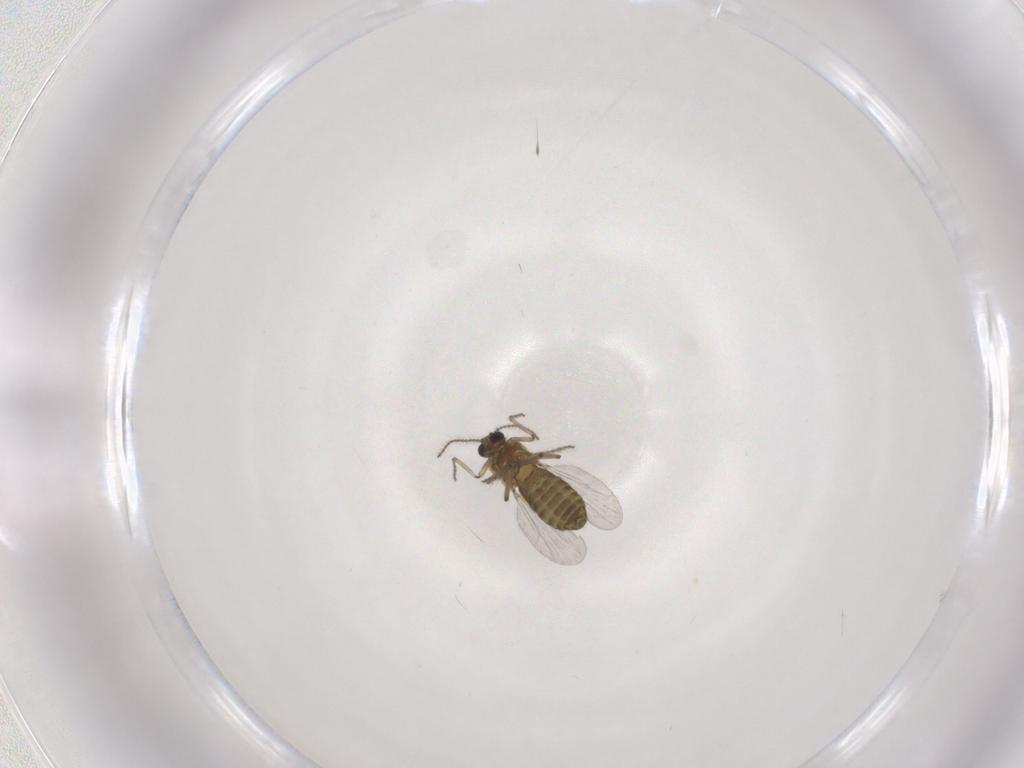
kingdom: Animalia
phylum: Arthropoda
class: Insecta
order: Diptera
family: Ceratopogonidae
